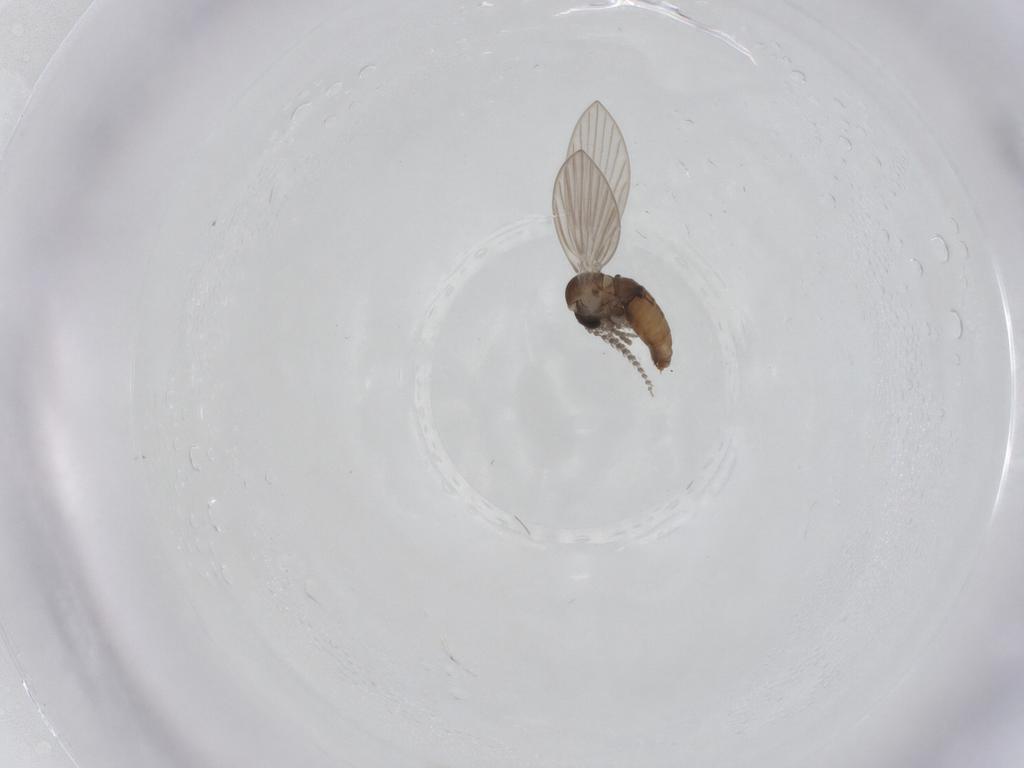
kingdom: Animalia
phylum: Arthropoda
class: Insecta
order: Diptera
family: Psychodidae
